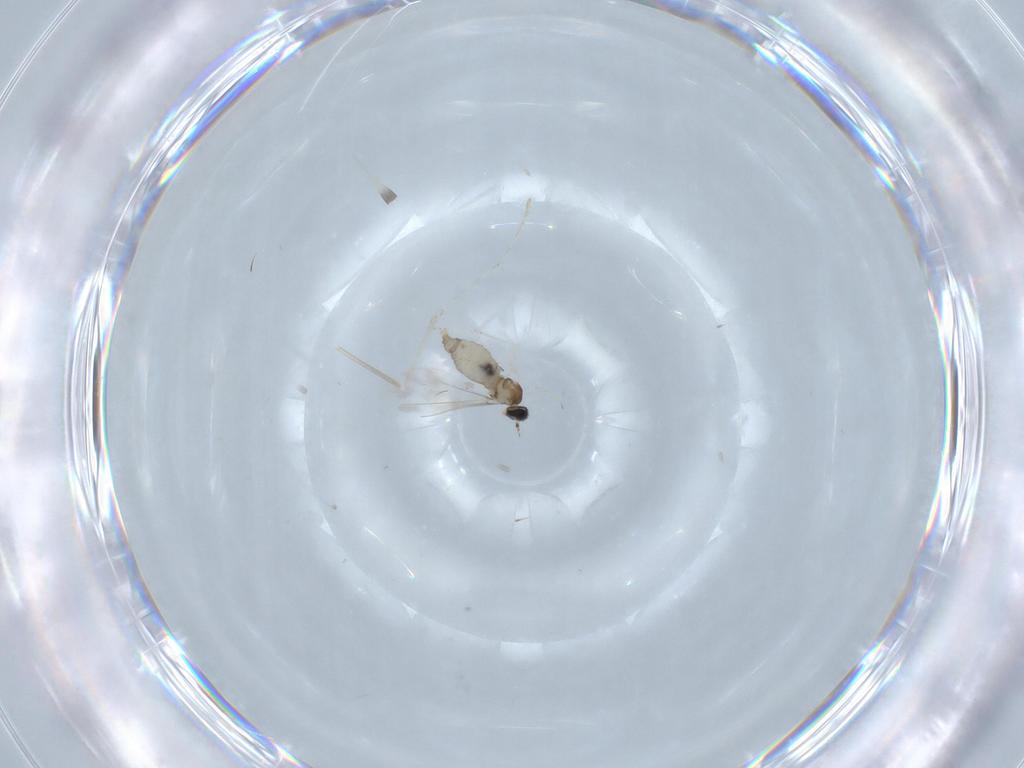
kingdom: Animalia
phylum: Arthropoda
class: Insecta
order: Diptera
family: Cecidomyiidae
